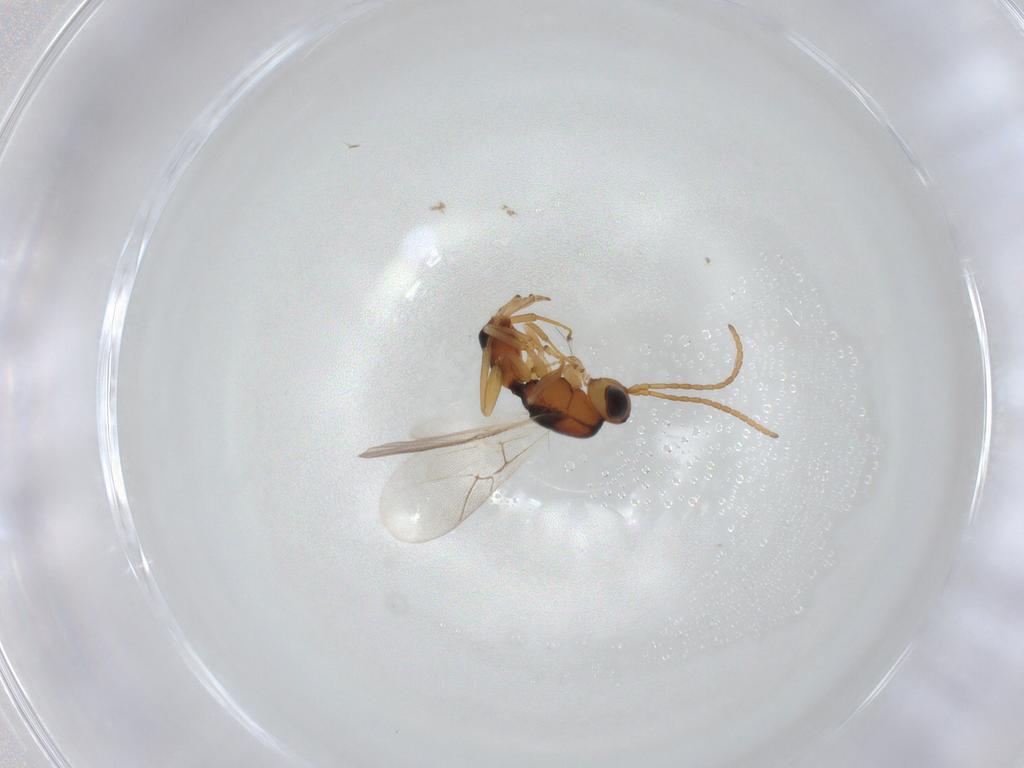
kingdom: Animalia
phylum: Arthropoda
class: Insecta
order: Hymenoptera
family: Cynipidae
